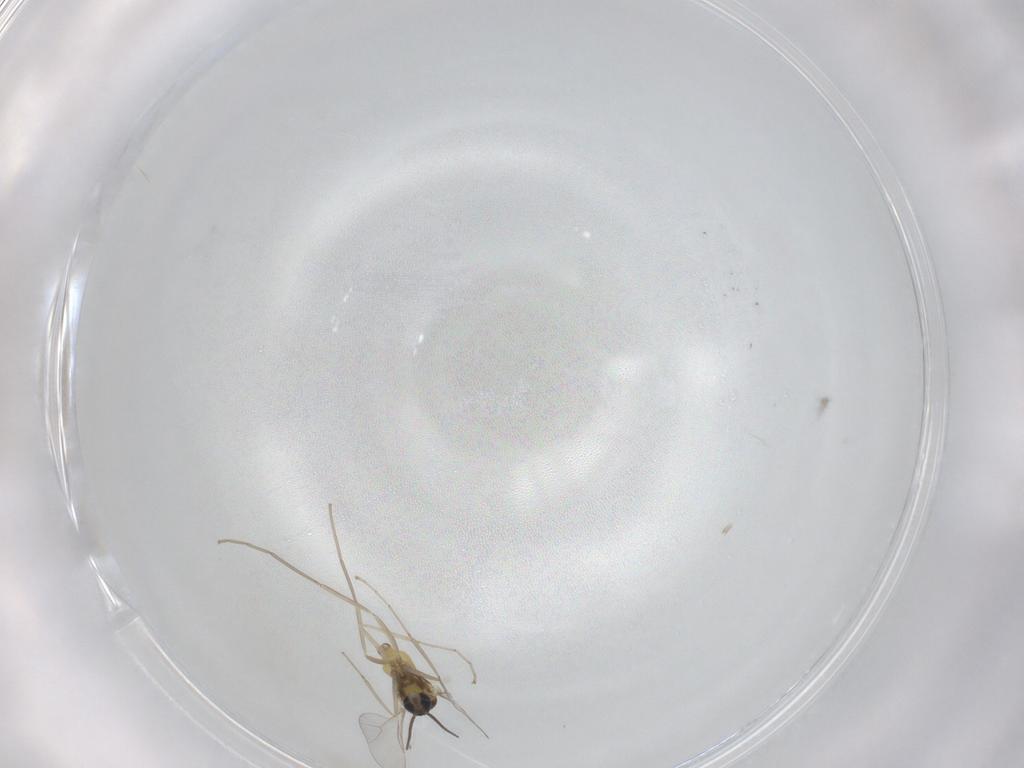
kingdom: Animalia
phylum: Arthropoda
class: Insecta
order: Diptera
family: Cecidomyiidae
